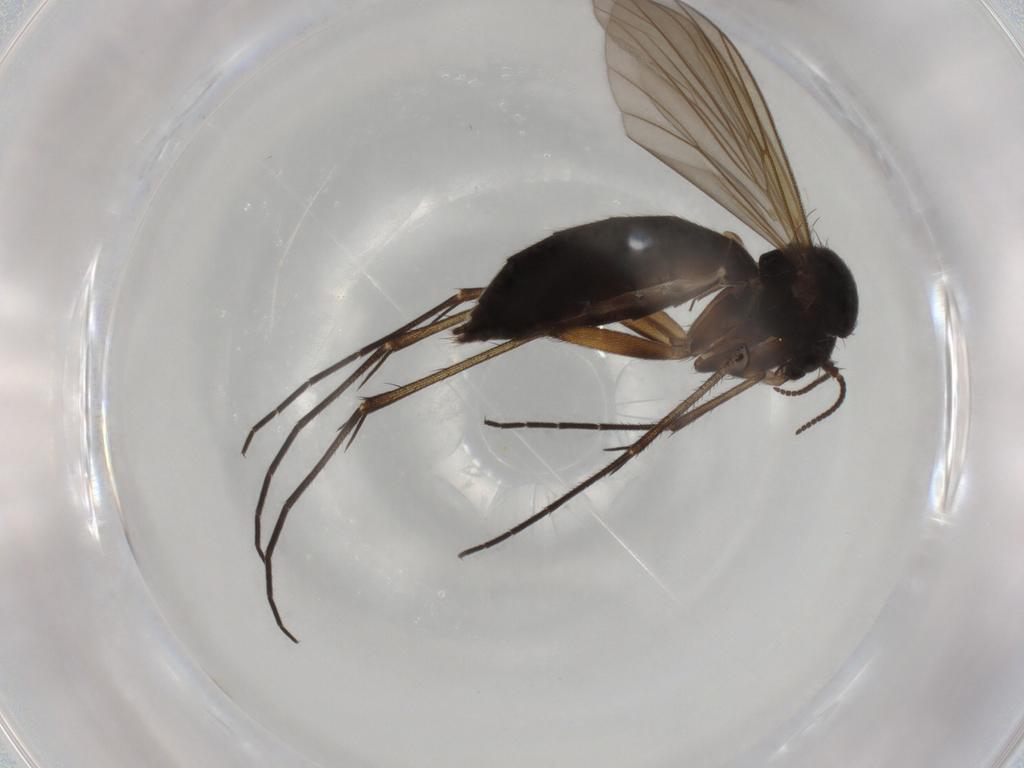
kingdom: Animalia
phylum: Arthropoda
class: Insecta
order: Diptera
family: Mycetophilidae
